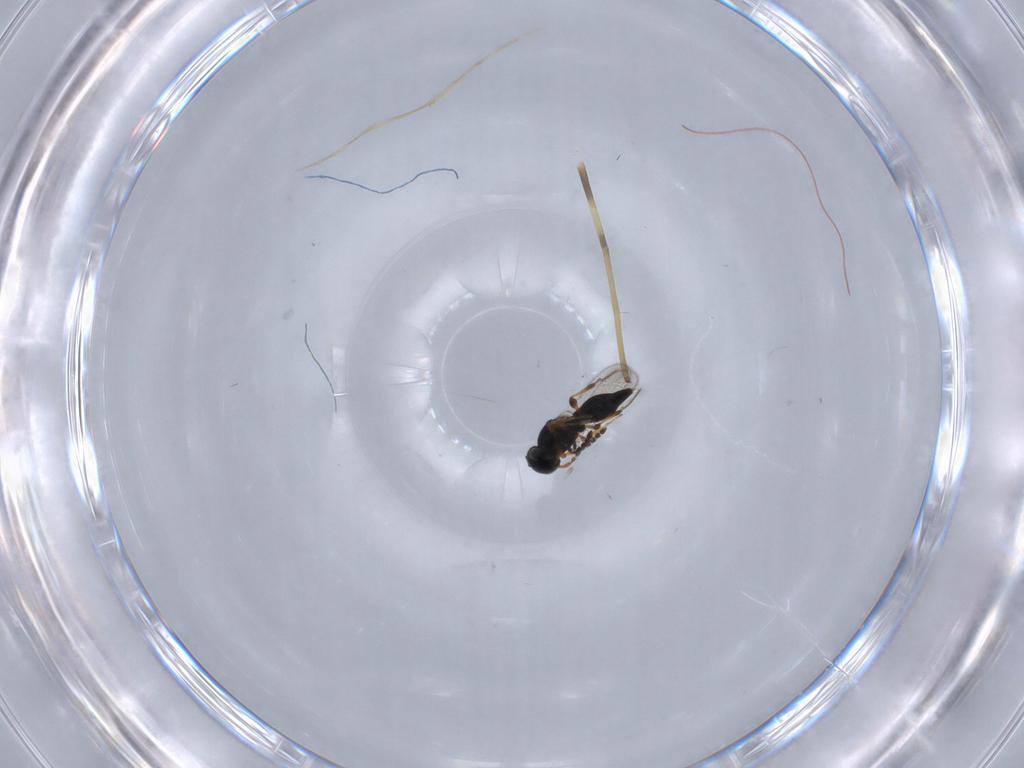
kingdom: Animalia
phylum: Arthropoda
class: Insecta
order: Hymenoptera
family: Platygastridae
